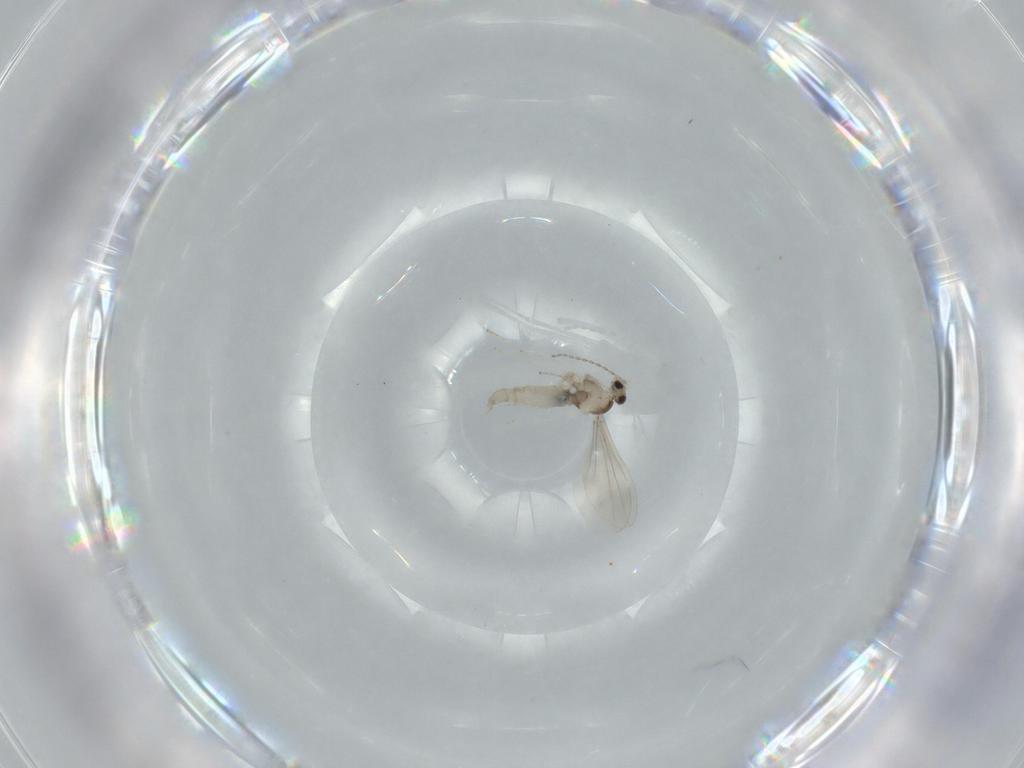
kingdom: Animalia
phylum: Arthropoda
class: Insecta
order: Diptera
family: Cecidomyiidae
